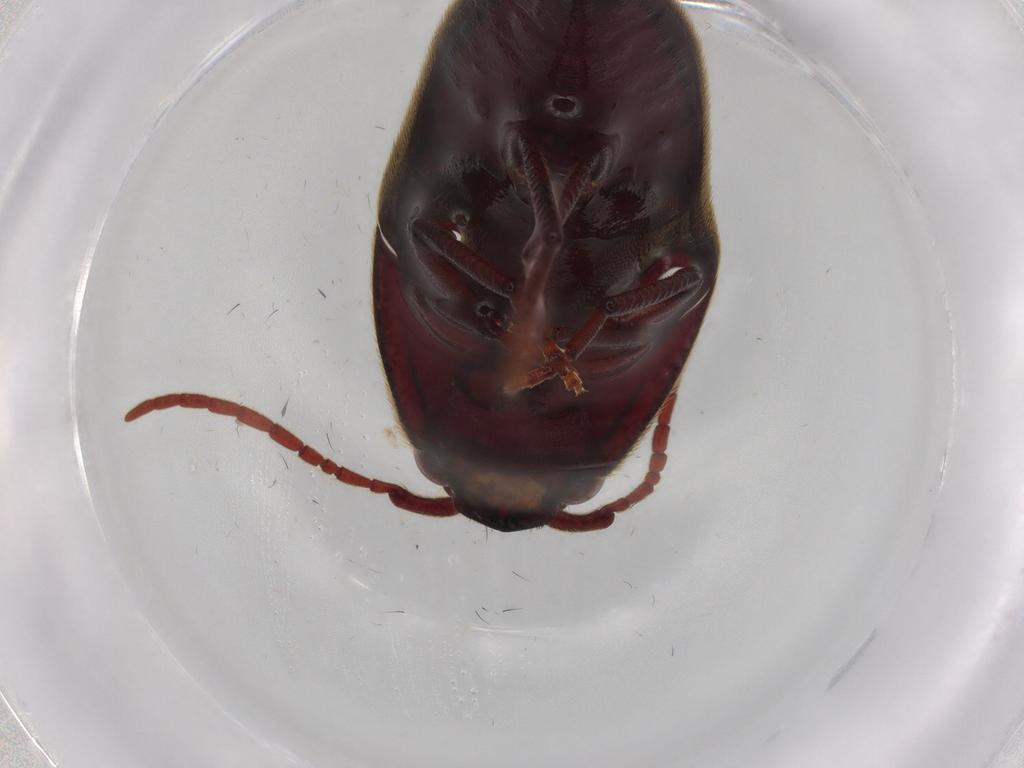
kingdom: Animalia
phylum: Arthropoda
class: Insecta
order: Coleoptera
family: Eucnemidae
